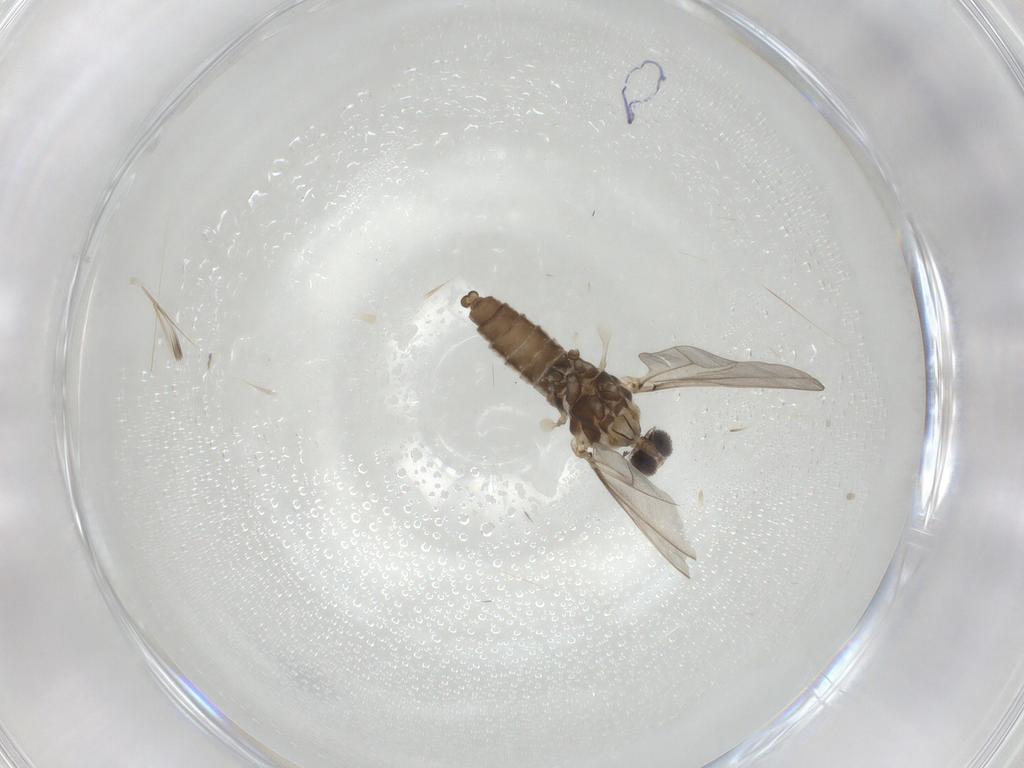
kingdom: Animalia
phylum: Arthropoda
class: Insecta
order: Diptera
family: Cecidomyiidae
